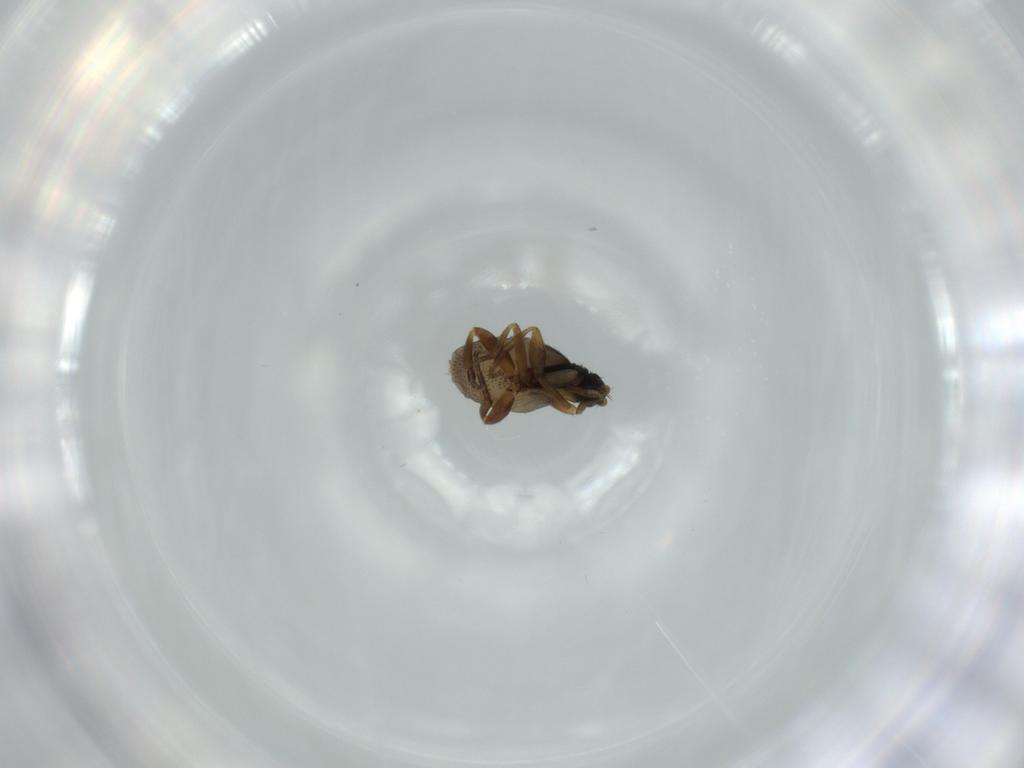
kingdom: Animalia
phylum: Arthropoda
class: Insecta
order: Diptera
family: Phoridae
